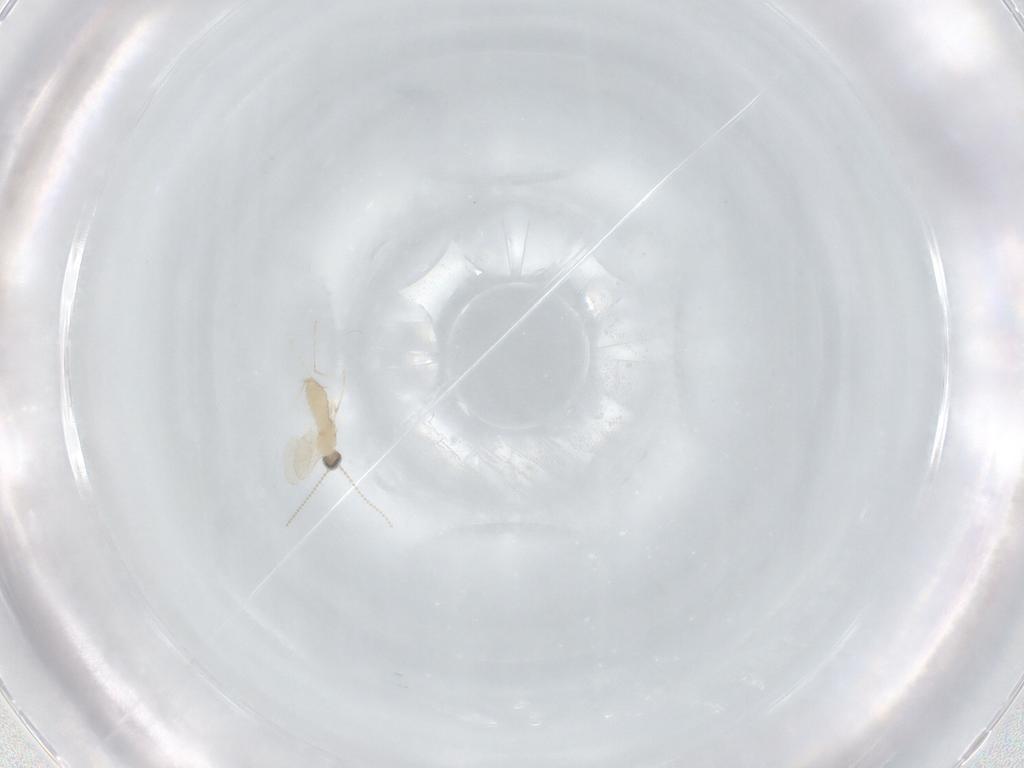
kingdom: Animalia
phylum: Arthropoda
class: Insecta
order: Diptera
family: Cecidomyiidae
